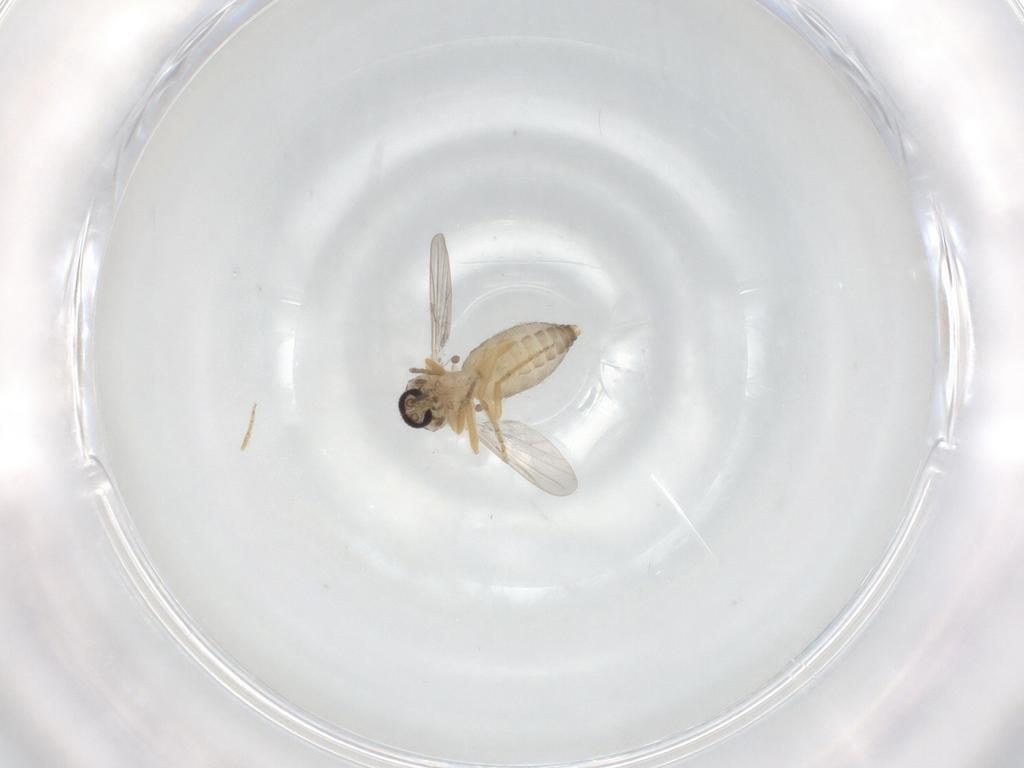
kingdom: Animalia
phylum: Arthropoda
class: Insecta
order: Diptera
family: Ceratopogonidae
